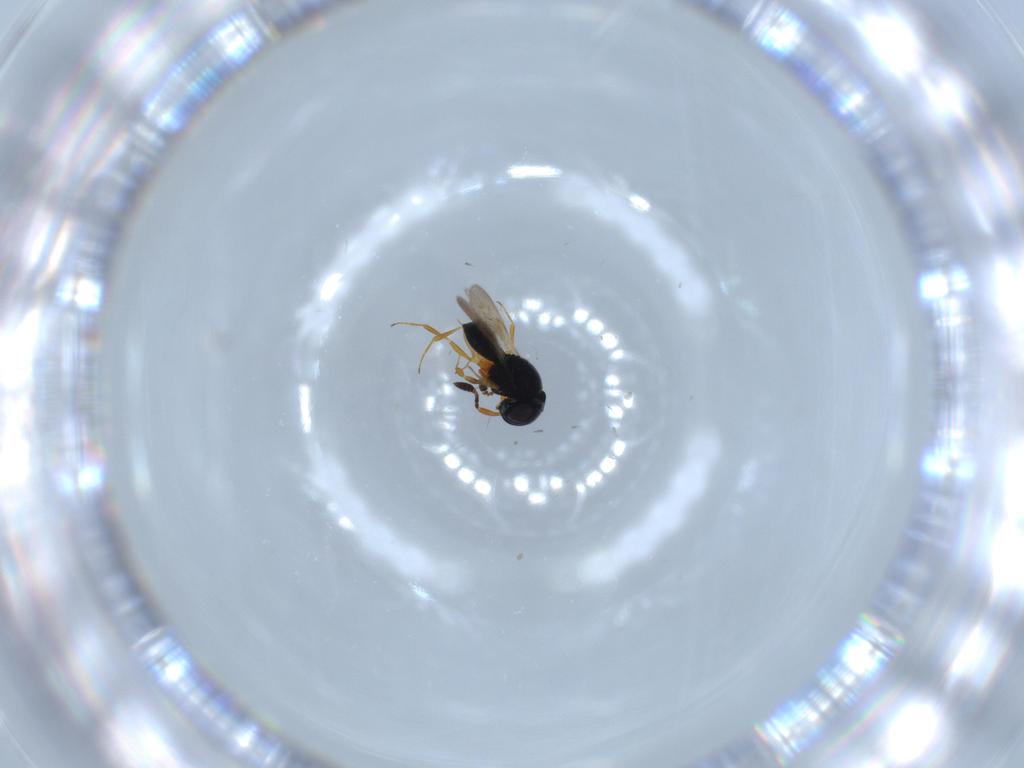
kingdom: Animalia
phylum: Arthropoda
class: Insecta
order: Hymenoptera
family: Scelionidae
